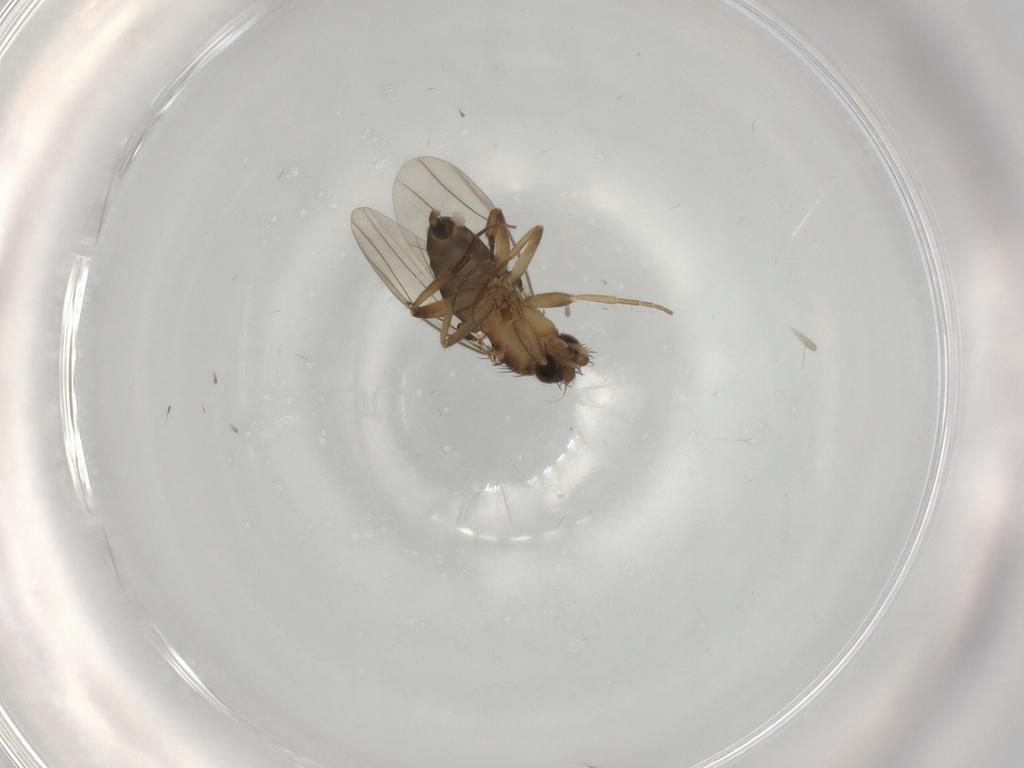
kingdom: Animalia
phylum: Arthropoda
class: Insecta
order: Diptera
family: Phoridae
